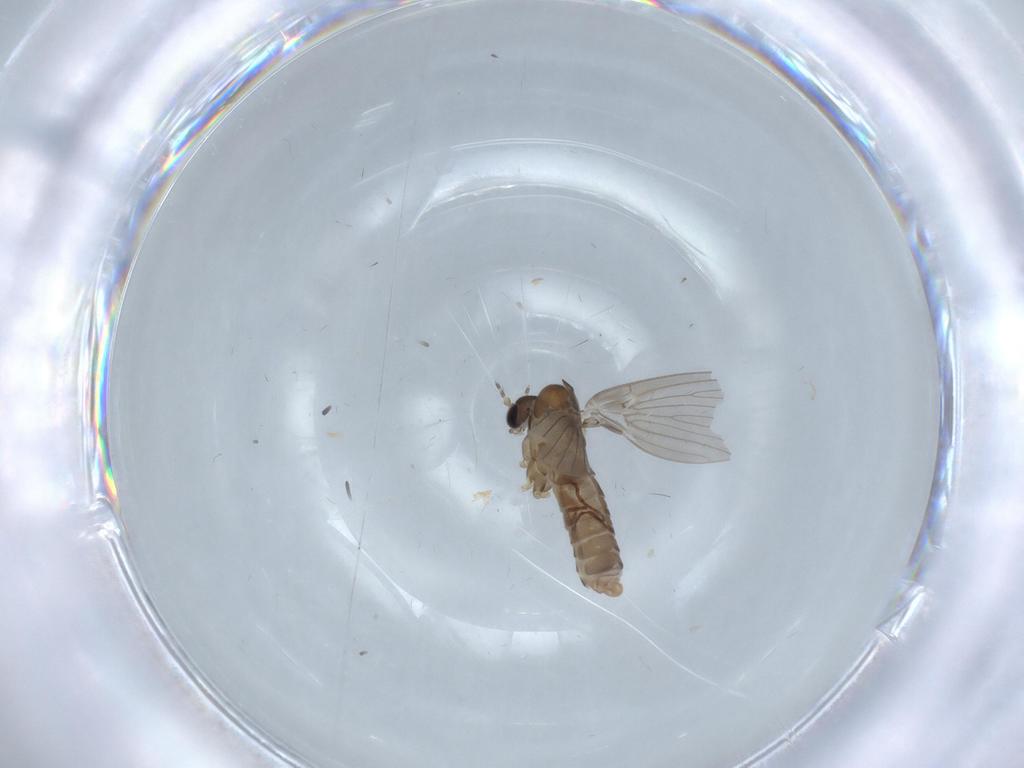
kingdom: Animalia
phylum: Arthropoda
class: Insecta
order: Diptera
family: Psychodidae
